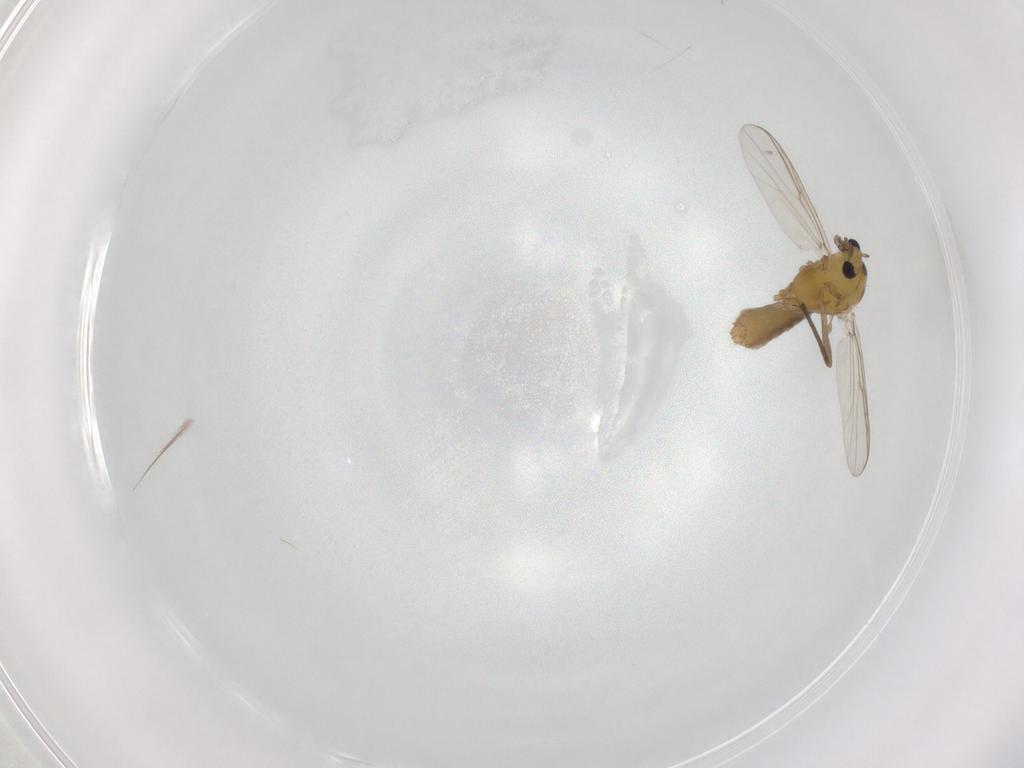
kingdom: Animalia
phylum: Arthropoda
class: Insecta
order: Diptera
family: Chironomidae
